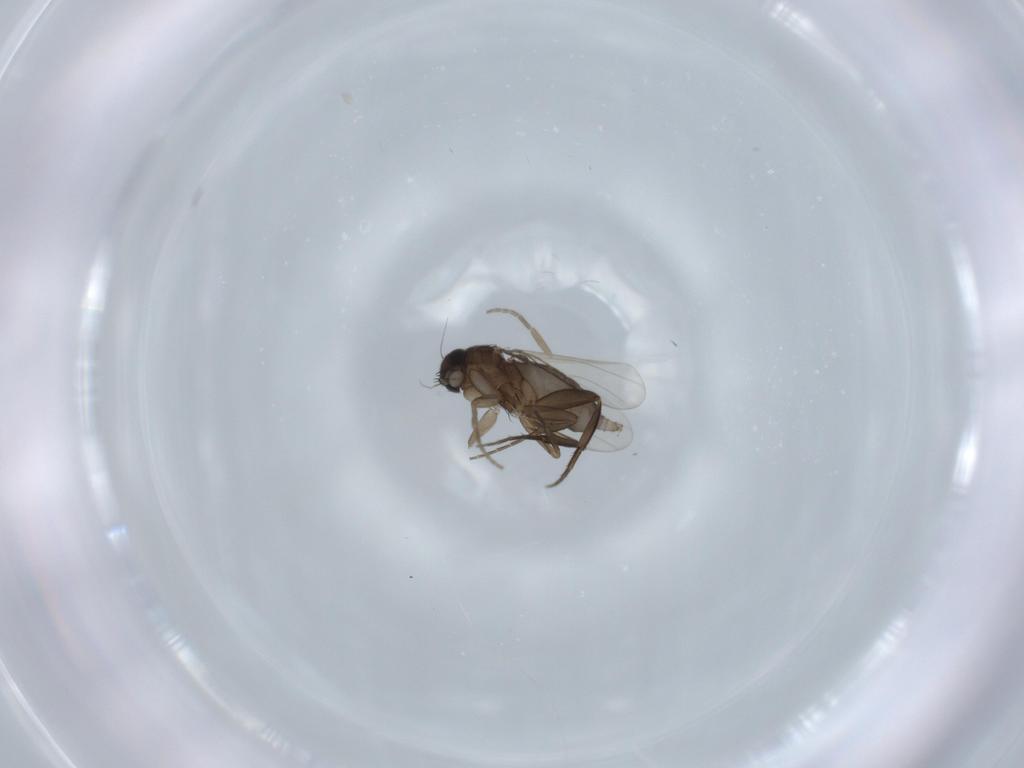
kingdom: Animalia
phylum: Arthropoda
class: Insecta
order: Diptera
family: Phoridae
